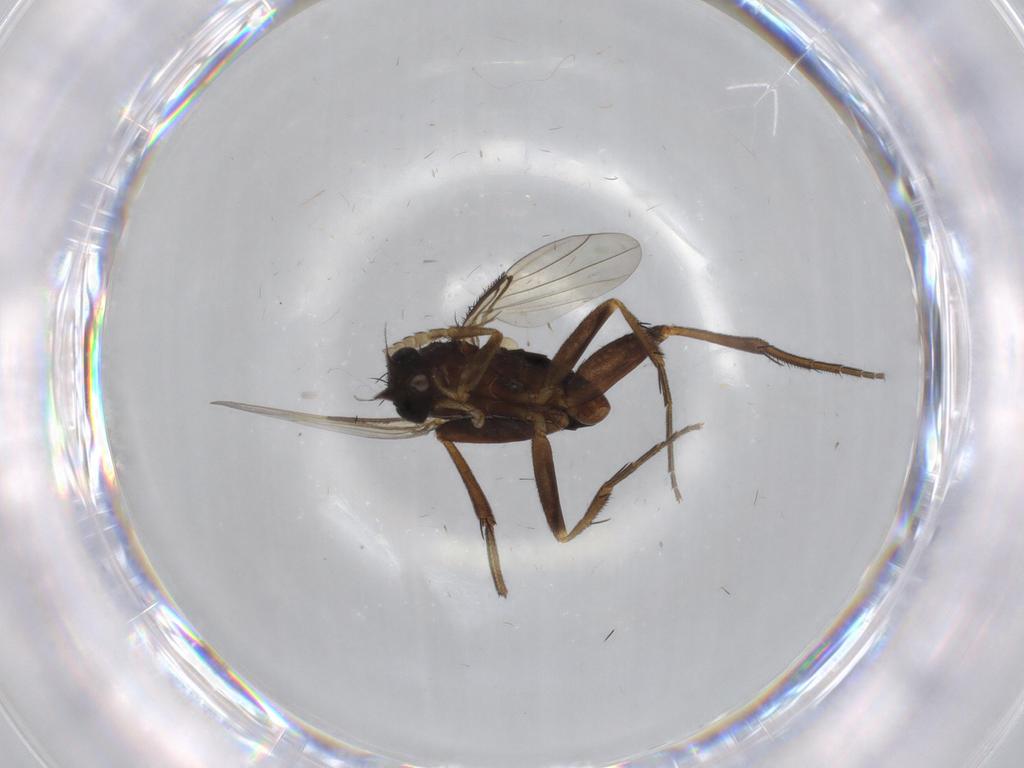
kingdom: Animalia
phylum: Arthropoda
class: Insecta
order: Diptera
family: Phoridae
